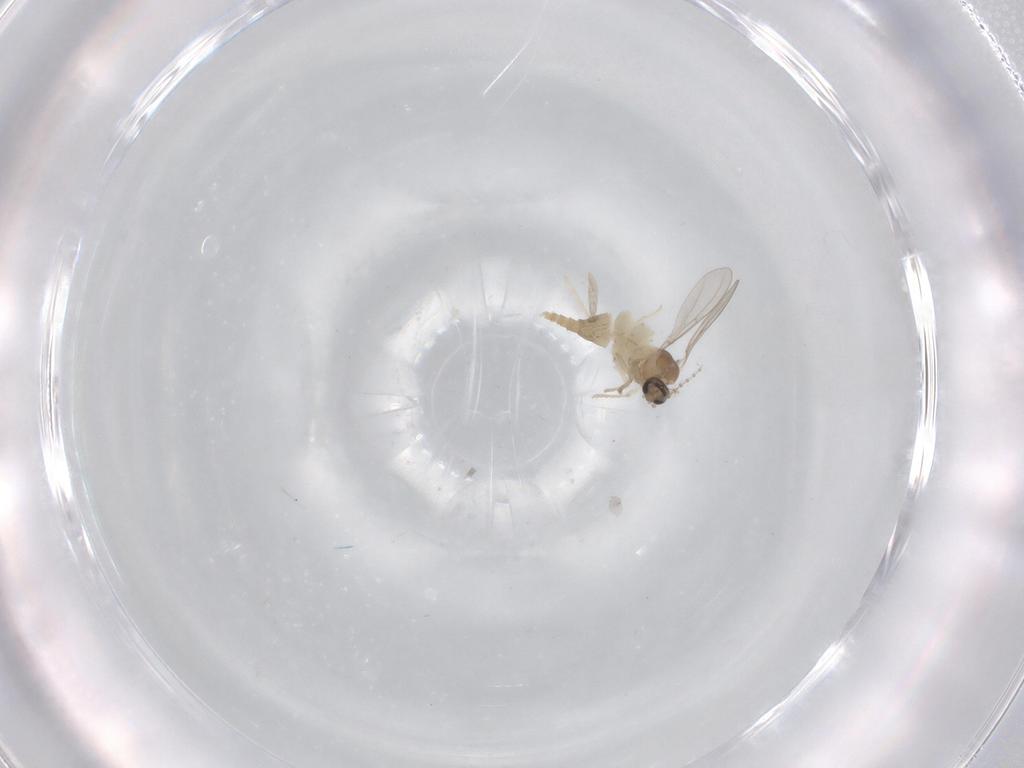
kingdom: Animalia
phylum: Arthropoda
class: Insecta
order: Diptera
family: Cecidomyiidae
